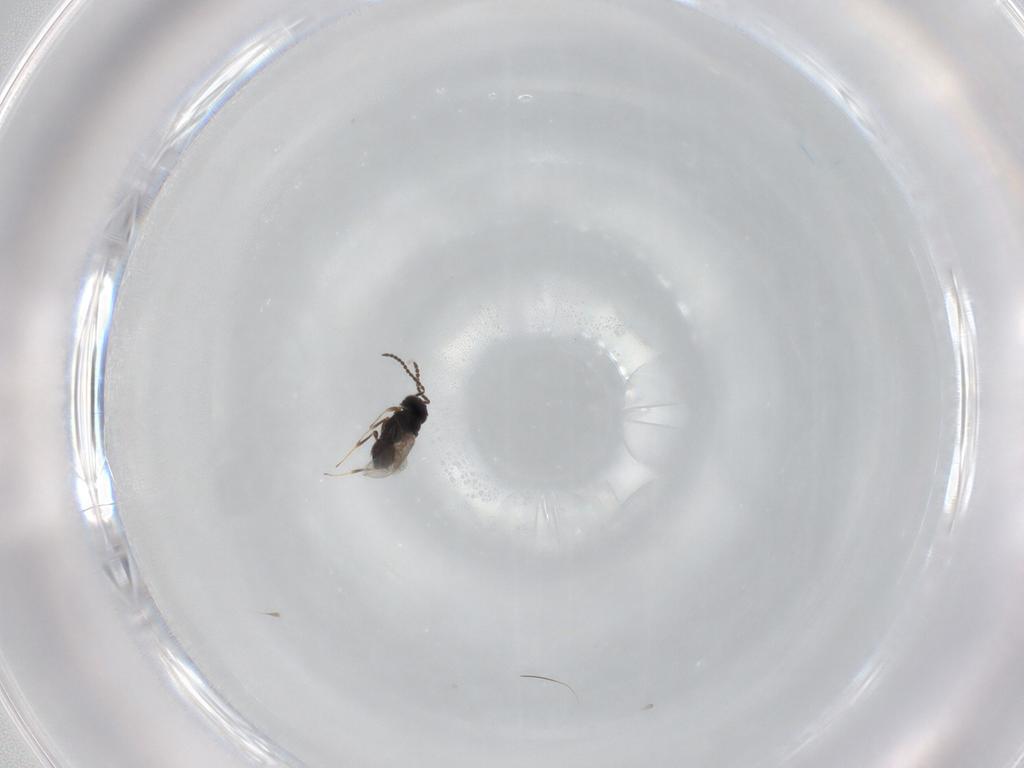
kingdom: Animalia
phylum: Arthropoda
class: Insecta
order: Hymenoptera
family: Scelionidae
